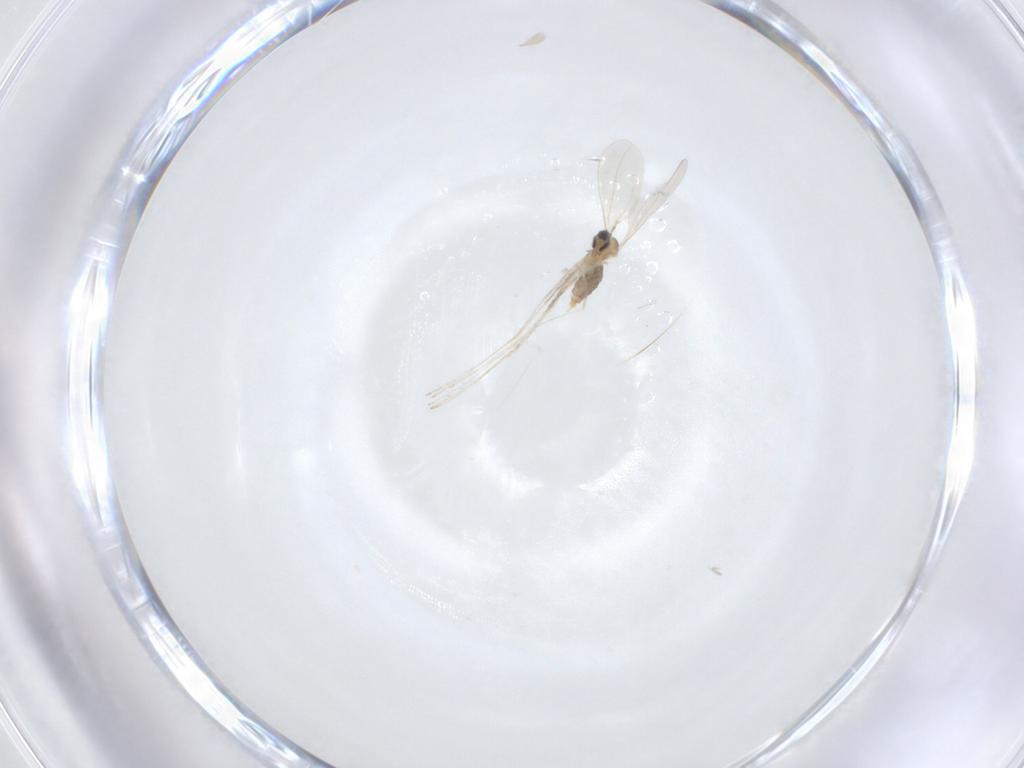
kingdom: Animalia
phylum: Arthropoda
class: Insecta
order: Diptera
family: Cecidomyiidae
